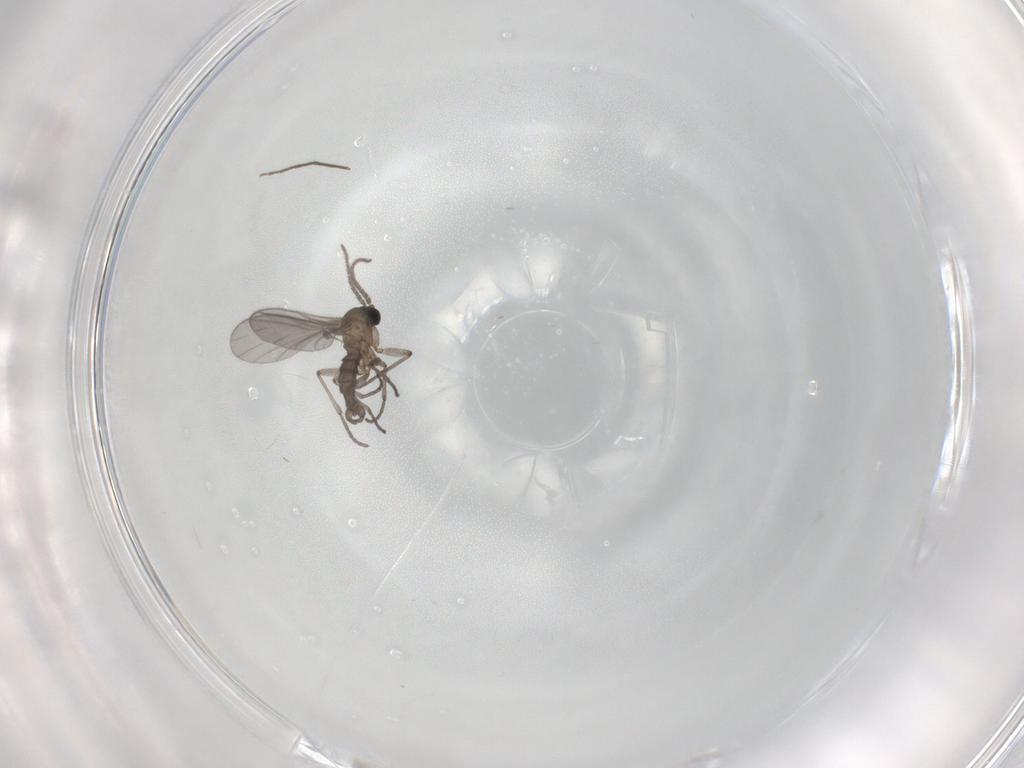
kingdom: Animalia
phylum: Arthropoda
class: Insecta
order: Diptera
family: Sciaridae
